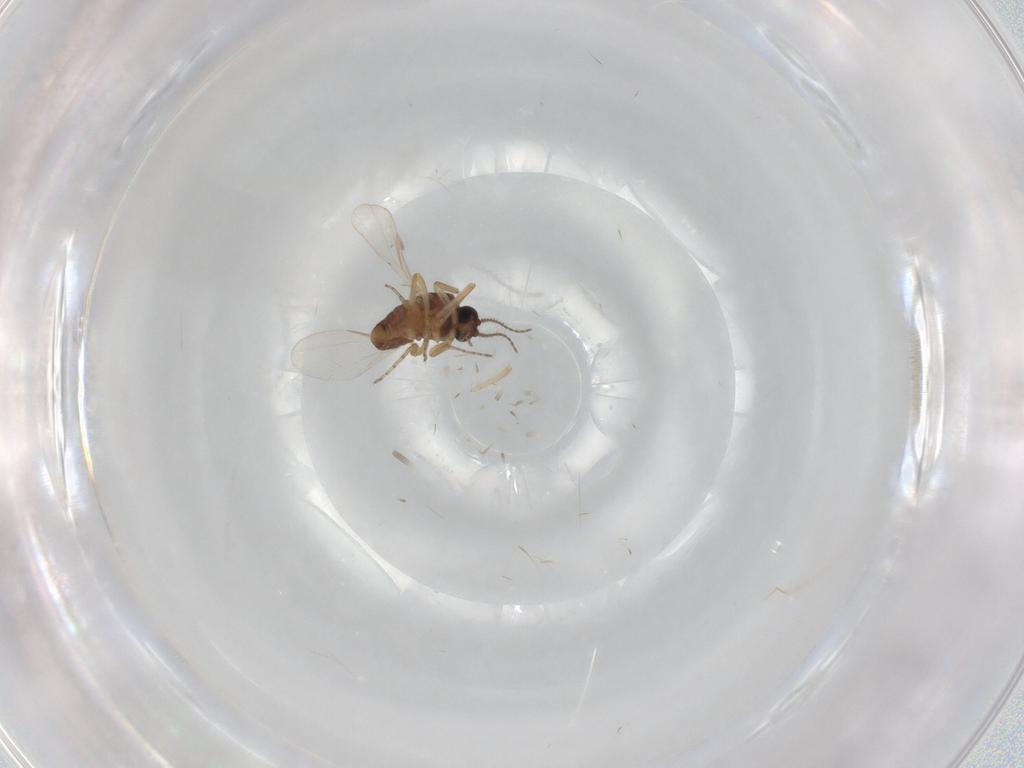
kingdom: Animalia
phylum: Arthropoda
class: Insecta
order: Diptera
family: Ceratopogonidae
